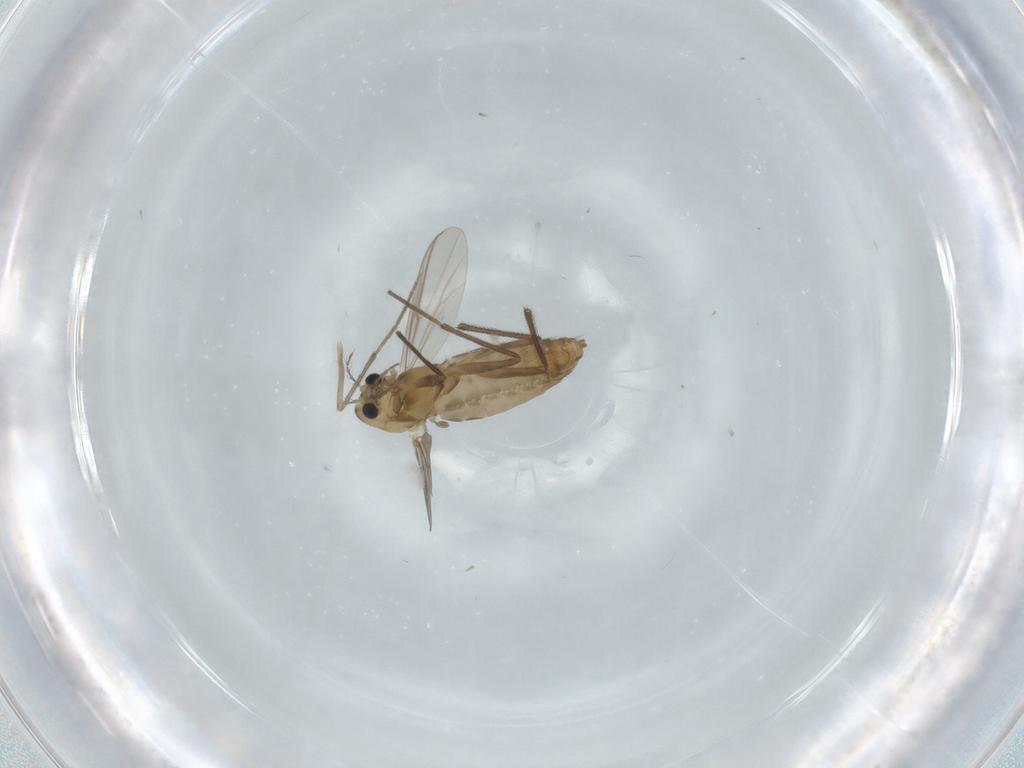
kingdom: Animalia
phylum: Arthropoda
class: Insecta
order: Diptera
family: Chironomidae
